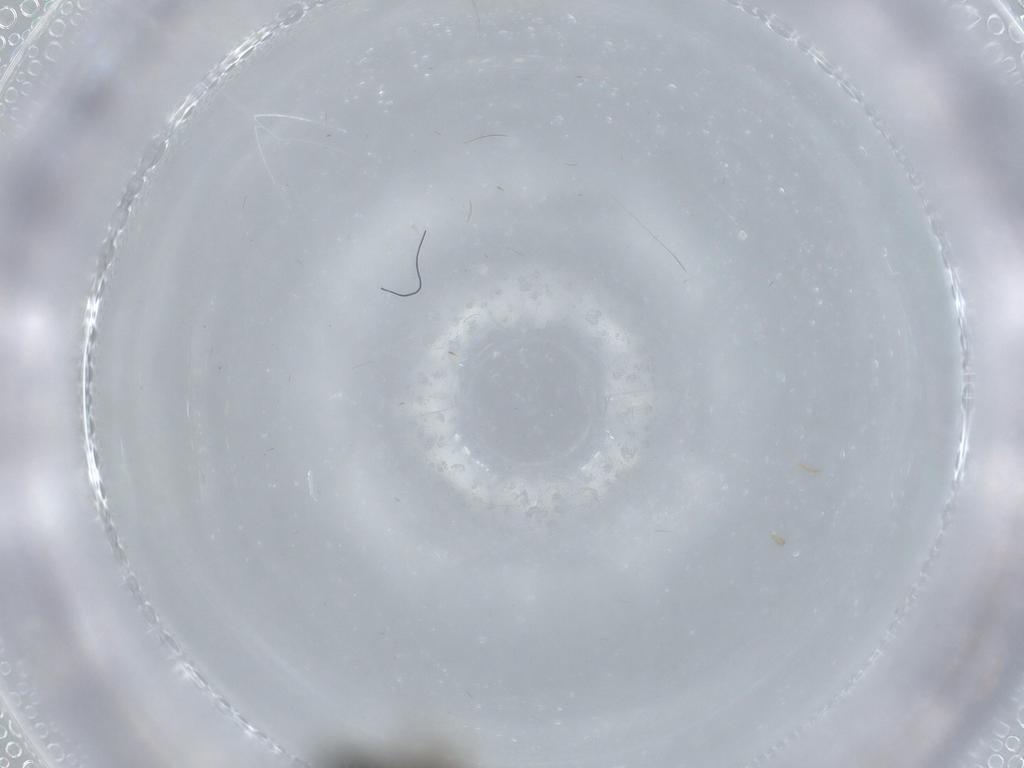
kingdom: Animalia
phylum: Arthropoda
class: Insecta
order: Diptera
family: Sciaridae
